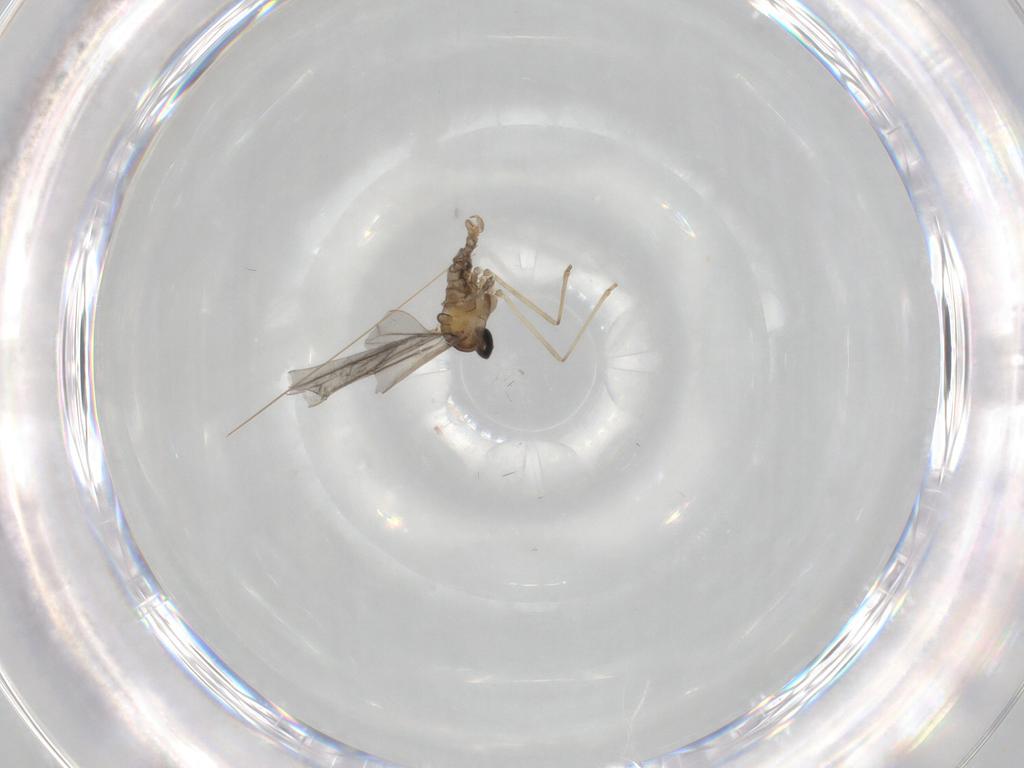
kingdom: Animalia
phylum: Arthropoda
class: Insecta
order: Diptera
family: Cecidomyiidae
